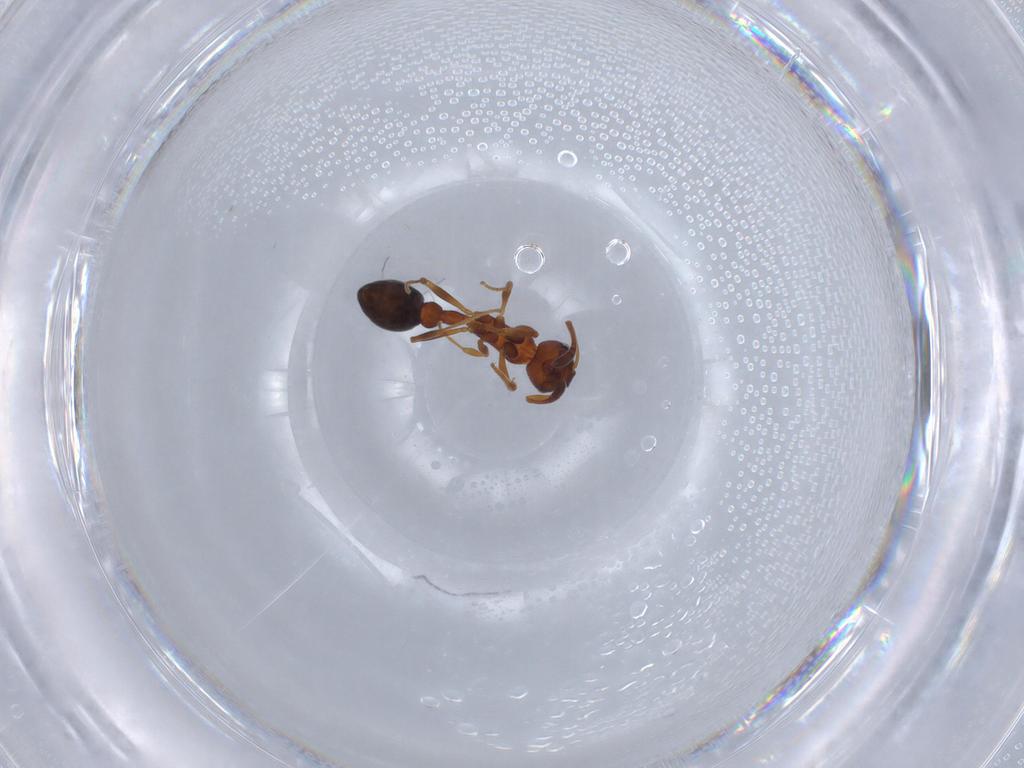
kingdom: Animalia
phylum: Arthropoda
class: Insecta
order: Hymenoptera
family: Formicidae
